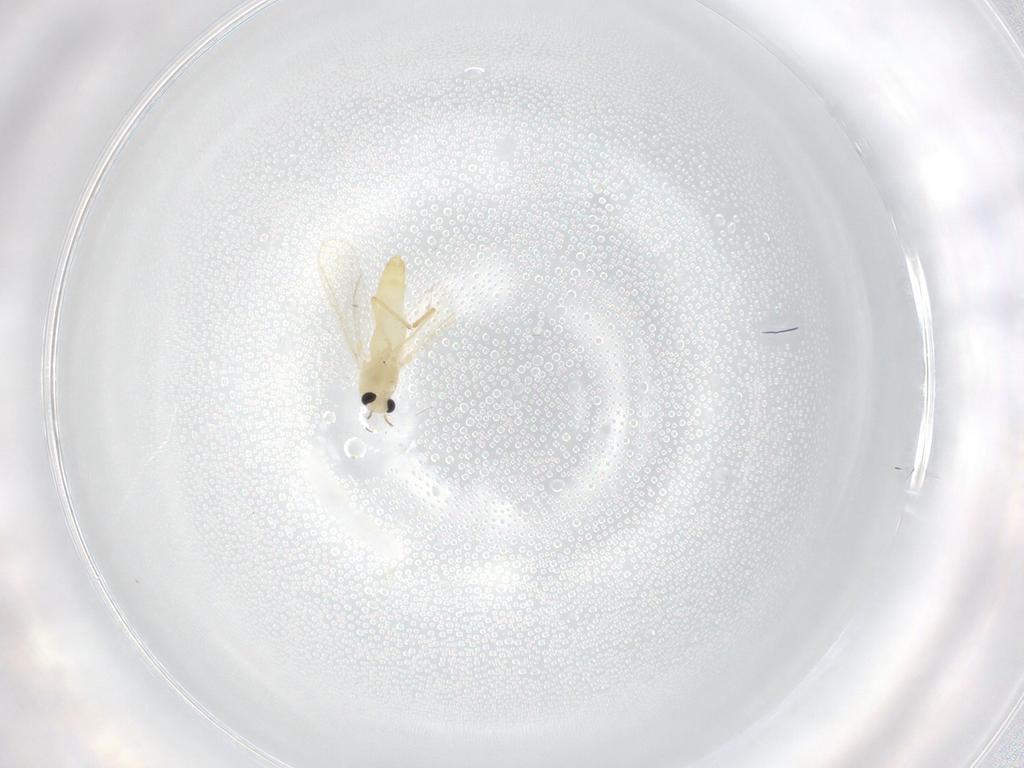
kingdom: Animalia
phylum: Arthropoda
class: Insecta
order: Diptera
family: Chironomidae
